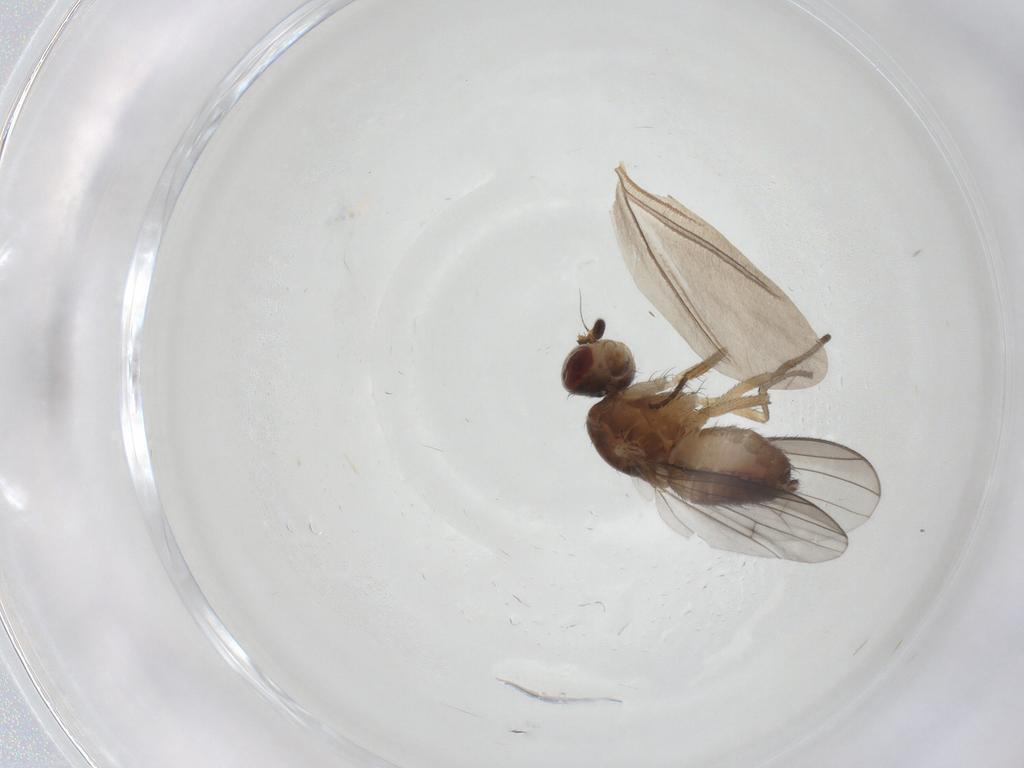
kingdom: Animalia
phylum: Arthropoda
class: Insecta
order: Diptera
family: Heleomyzidae
